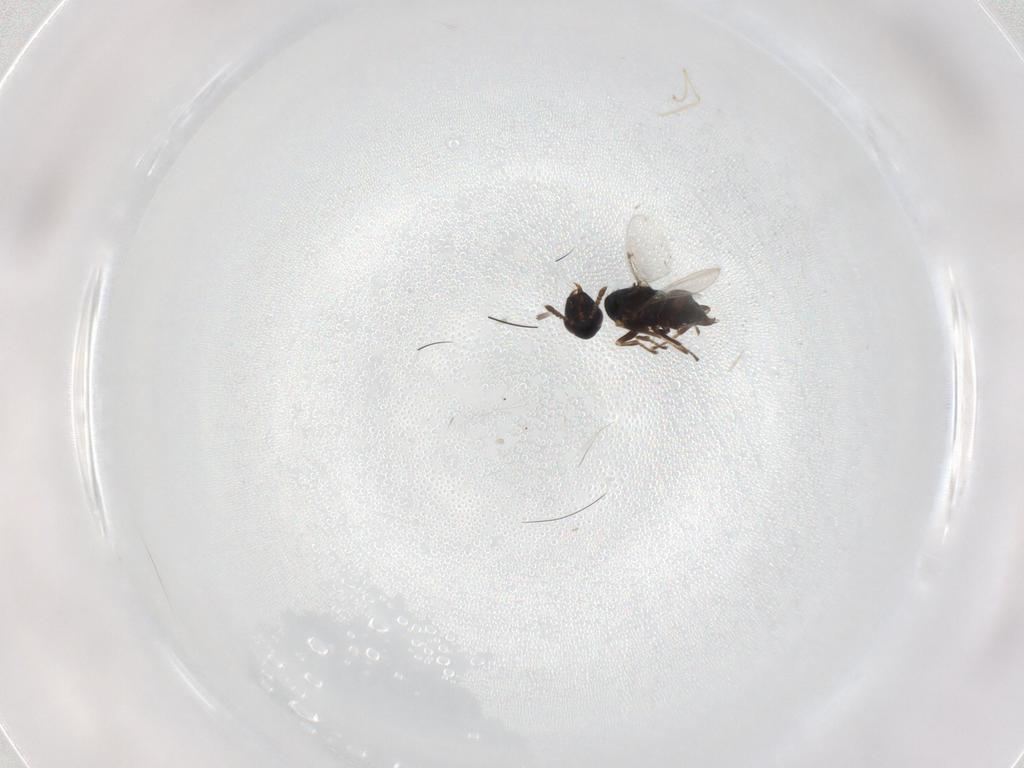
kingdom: Animalia
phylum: Arthropoda
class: Insecta
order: Hymenoptera
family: Encyrtidae
